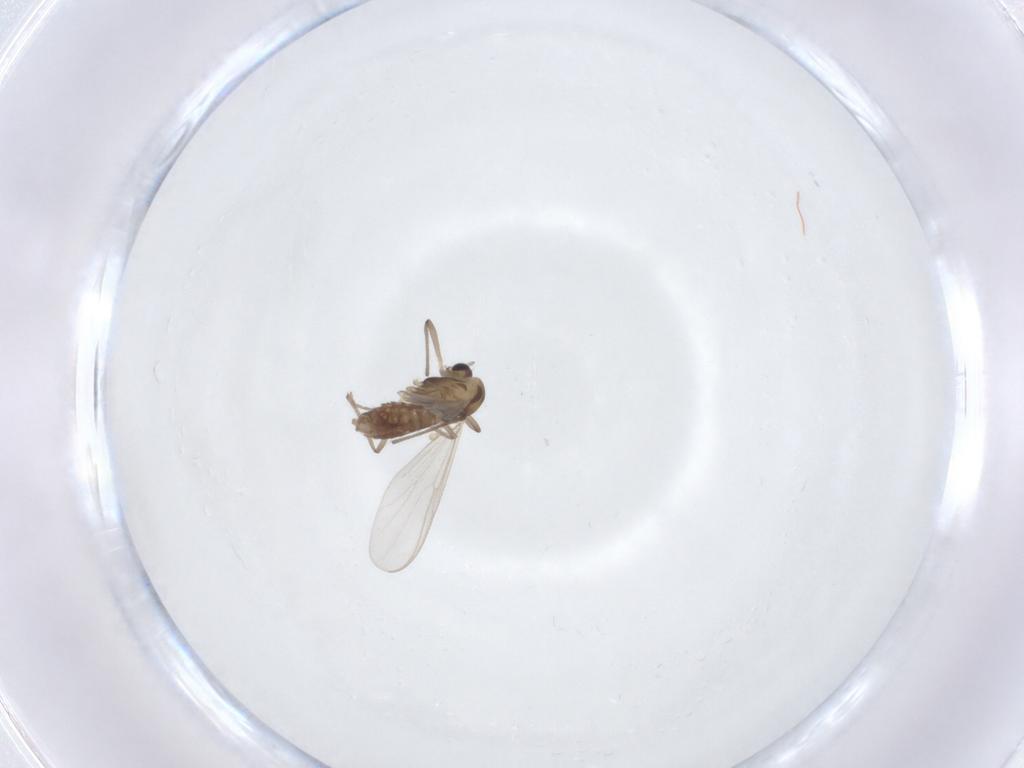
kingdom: Animalia
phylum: Arthropoda
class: Insecta
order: Diptera
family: Chironomidae
